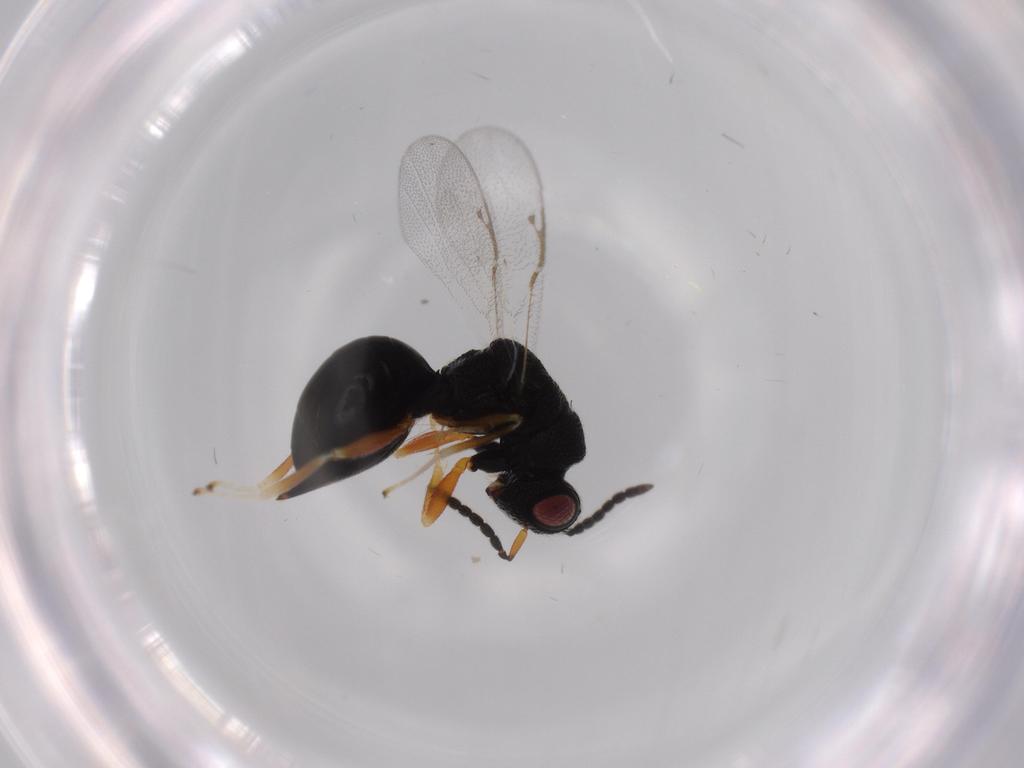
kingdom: Animalia
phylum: Arthropoda
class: Insecta
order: Hymenoptera
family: Eurytomidae
